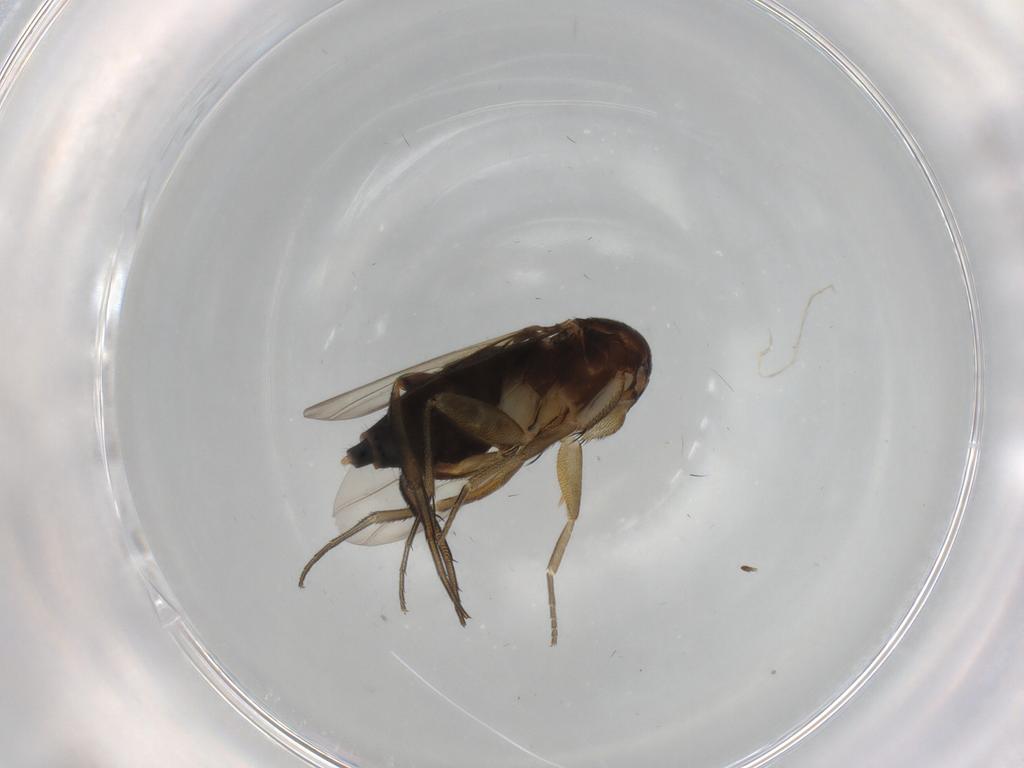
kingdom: Animalia
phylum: Arthropoda
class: Insecta
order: Diptera
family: Phoridae
